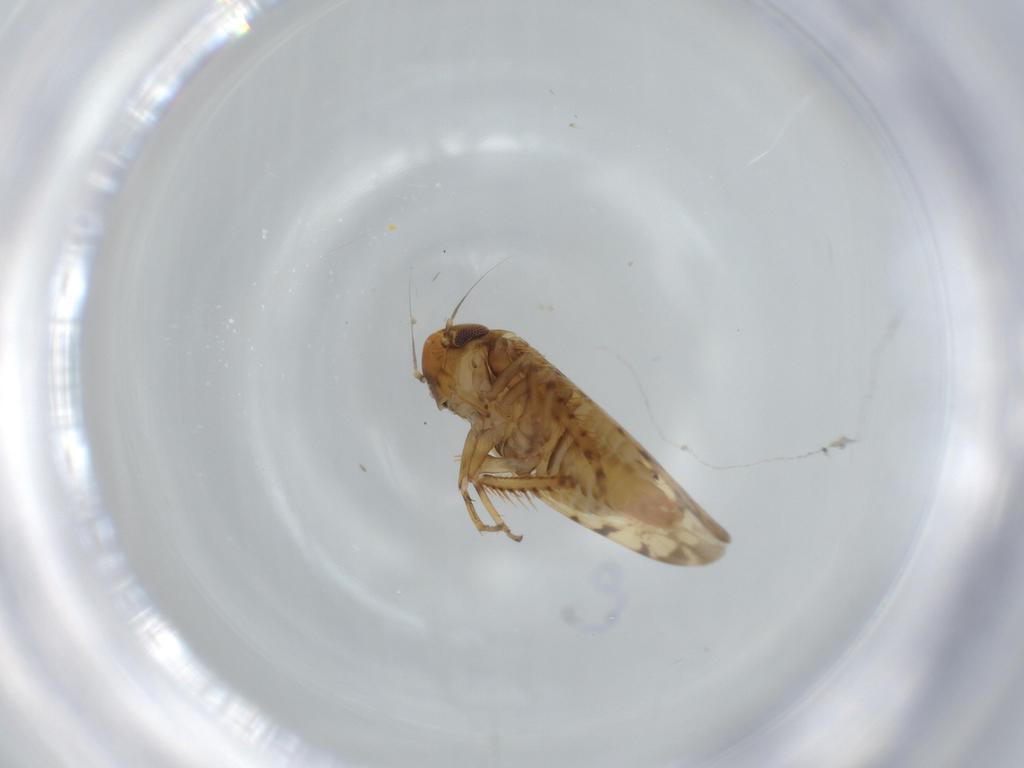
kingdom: Animalia
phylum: Arthropoda
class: Insecta
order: Hemiptera
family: Cicadellidae
